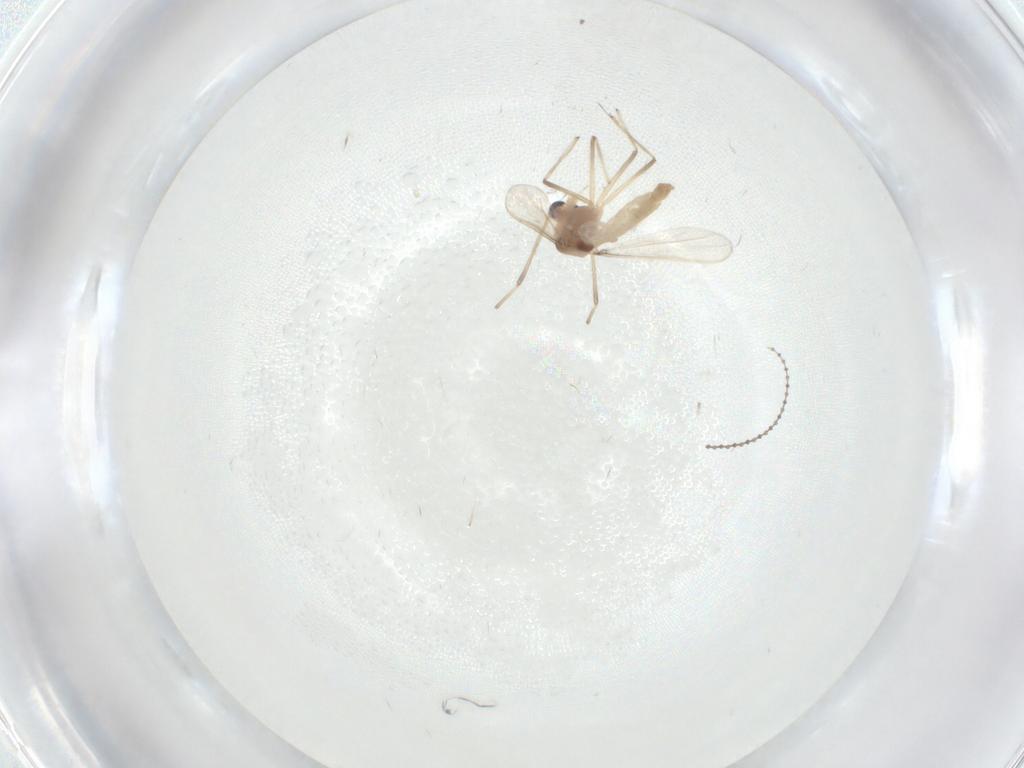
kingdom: Animalia
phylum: Arthropoda
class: Insecta
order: Diptera
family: Chironomidae
